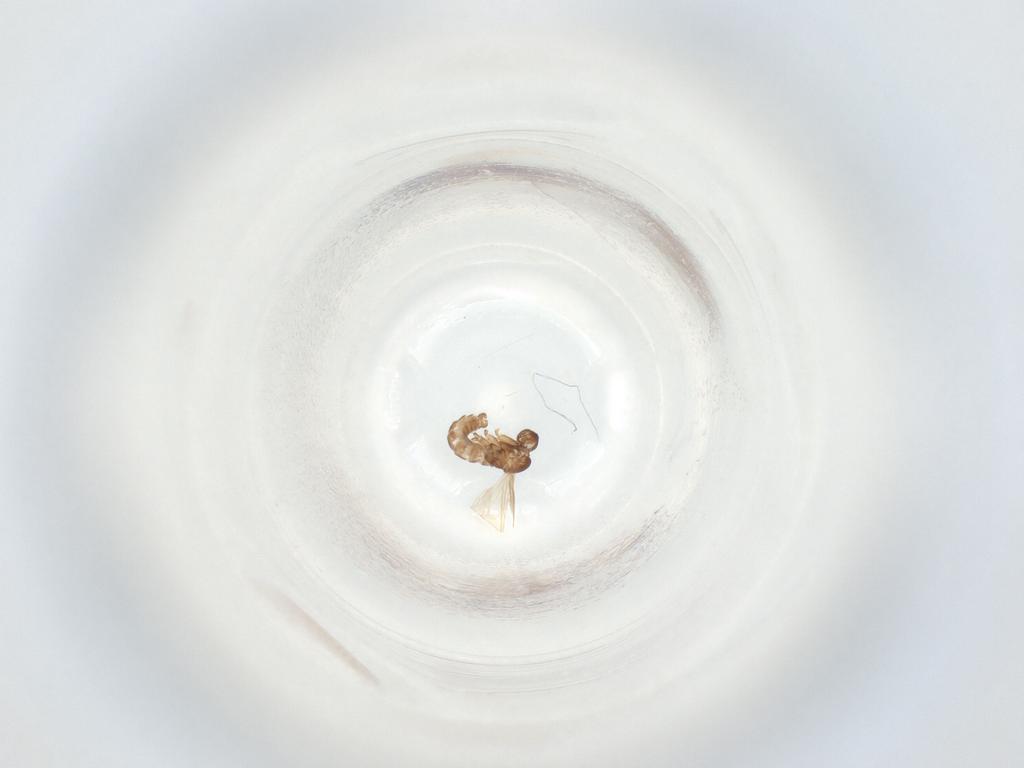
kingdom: Animalia
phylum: Arthropoda
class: Insecta
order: Diptera
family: Sciaridae
